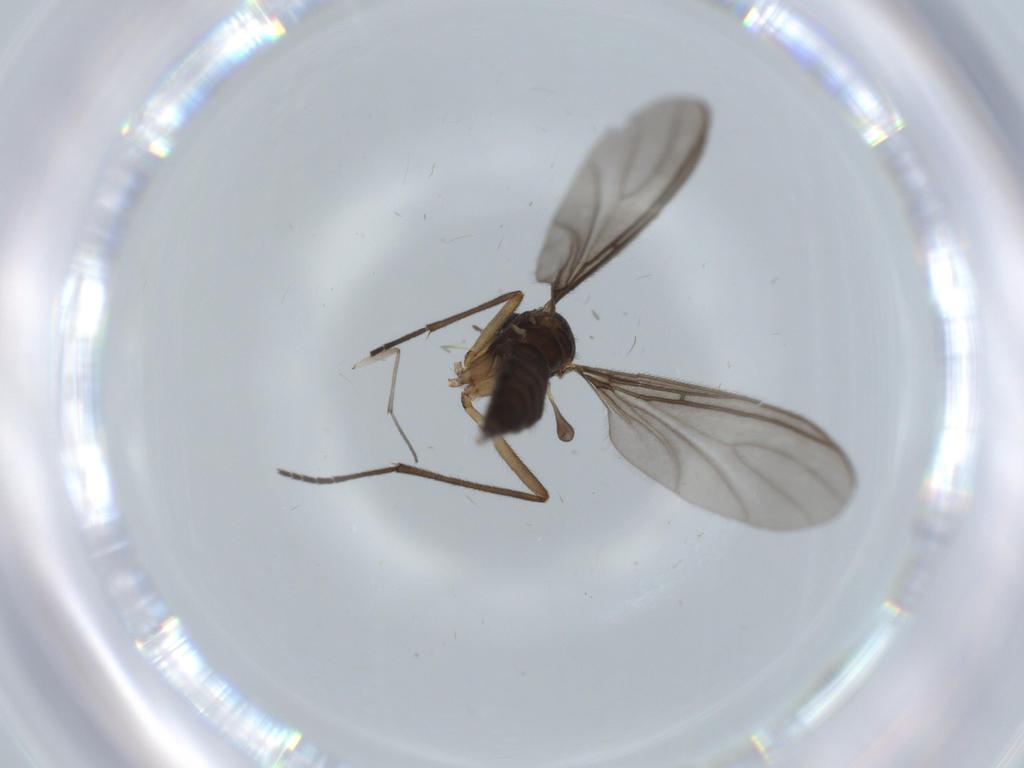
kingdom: Animalia
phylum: Arthropoda
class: Insecta
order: Diptera
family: Sciaridae
